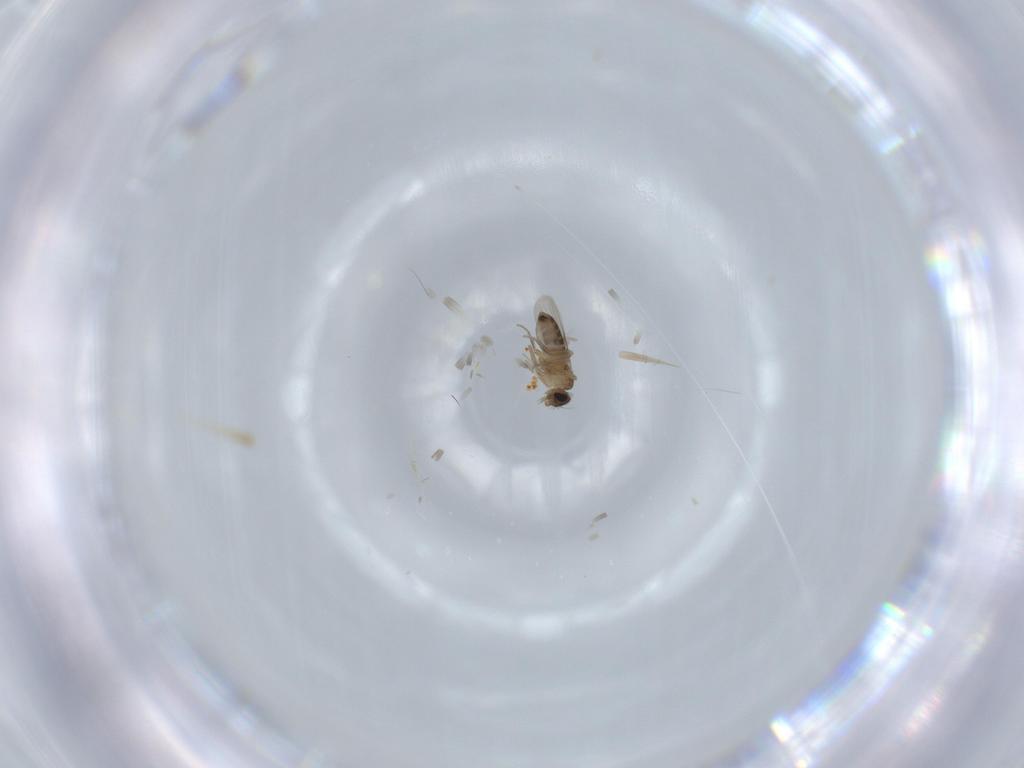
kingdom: Animalia
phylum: Arthropoda
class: Insecta
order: Diptera
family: Phoridae
